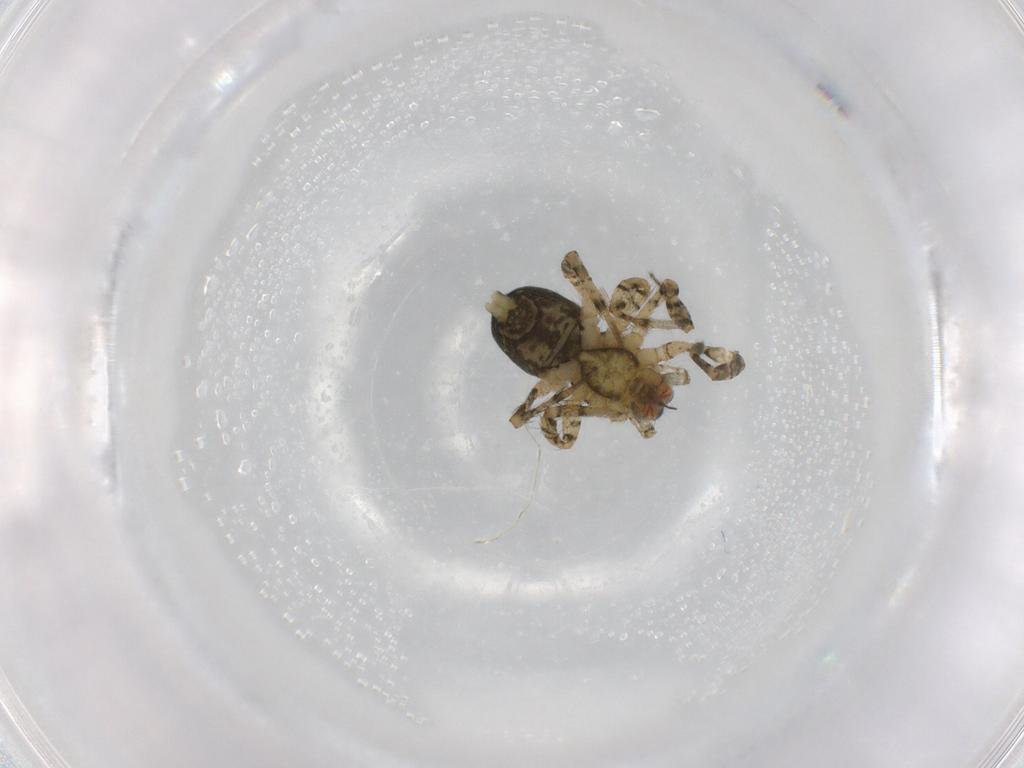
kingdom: Animalia
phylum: Arthropoda
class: Arachnida
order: Araneae
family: Anyphaenidae
